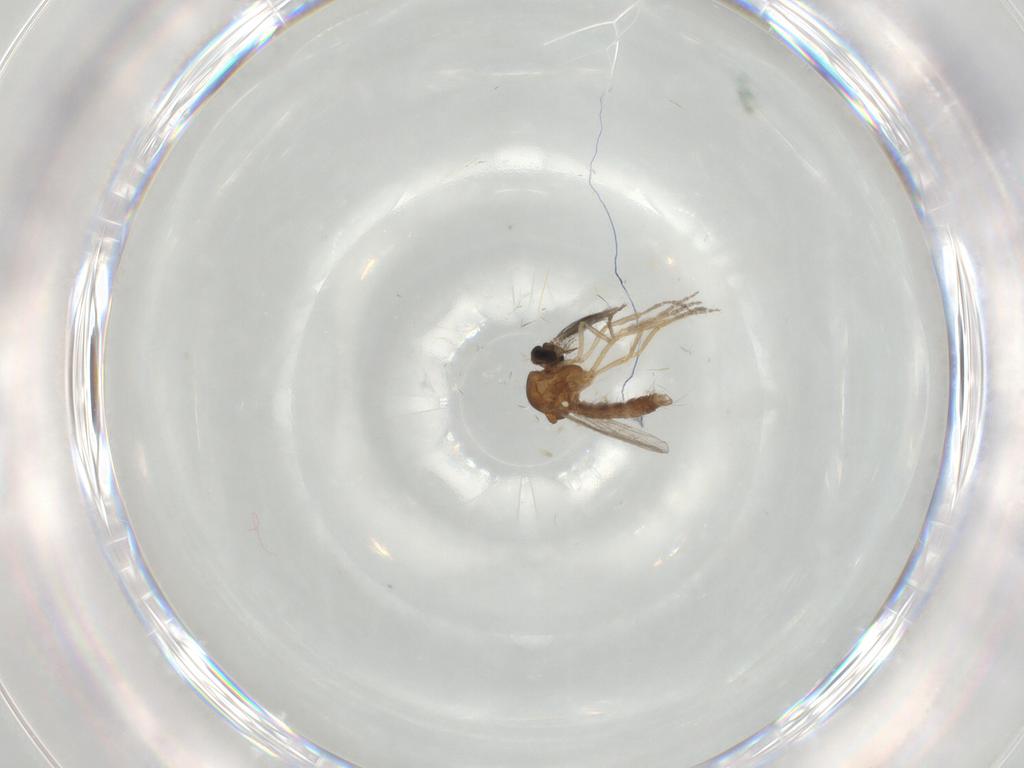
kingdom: Animalia
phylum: Arthropoda
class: Insecta
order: Diptera
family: Ceratopogonidae
